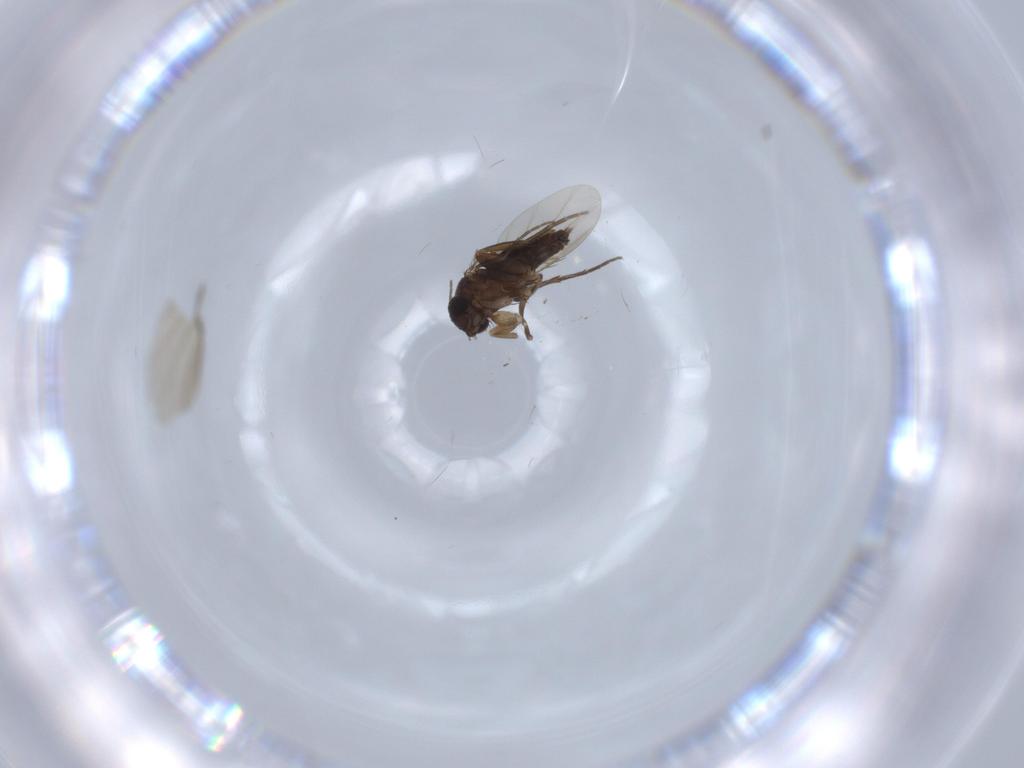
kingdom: Animalia
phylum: Arthropoda
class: Insecta
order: Diptera
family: Phoridae
